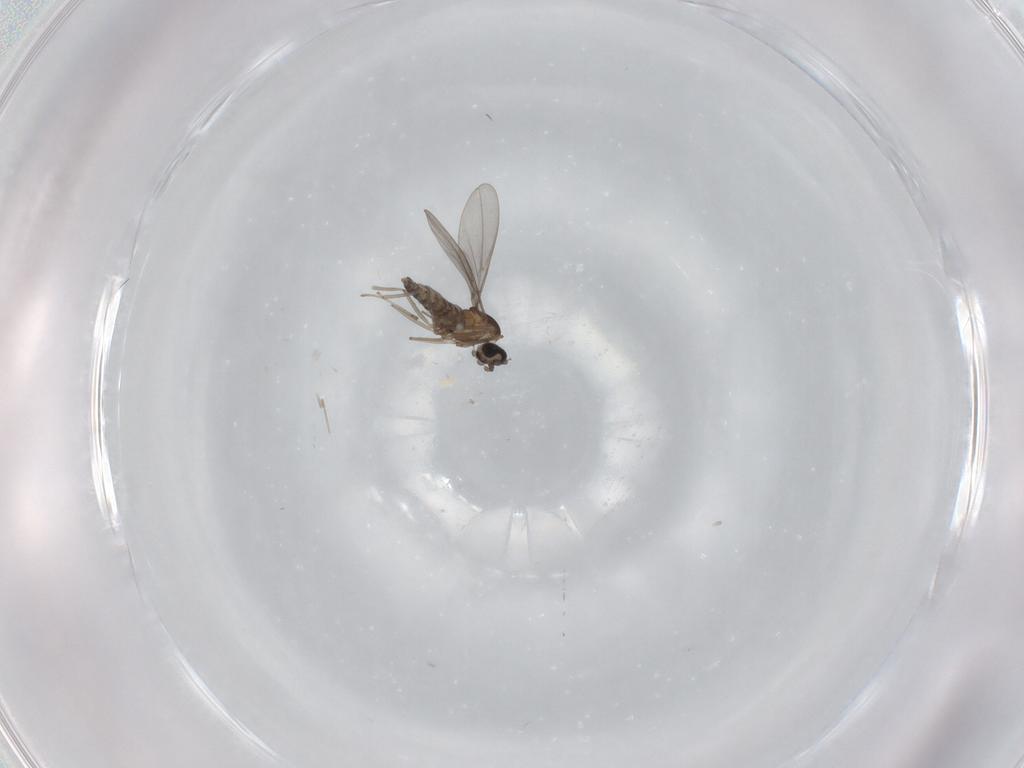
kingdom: Animalia
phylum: Arthropoda
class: Insecta
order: Diptera
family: Cecidomyiidae
